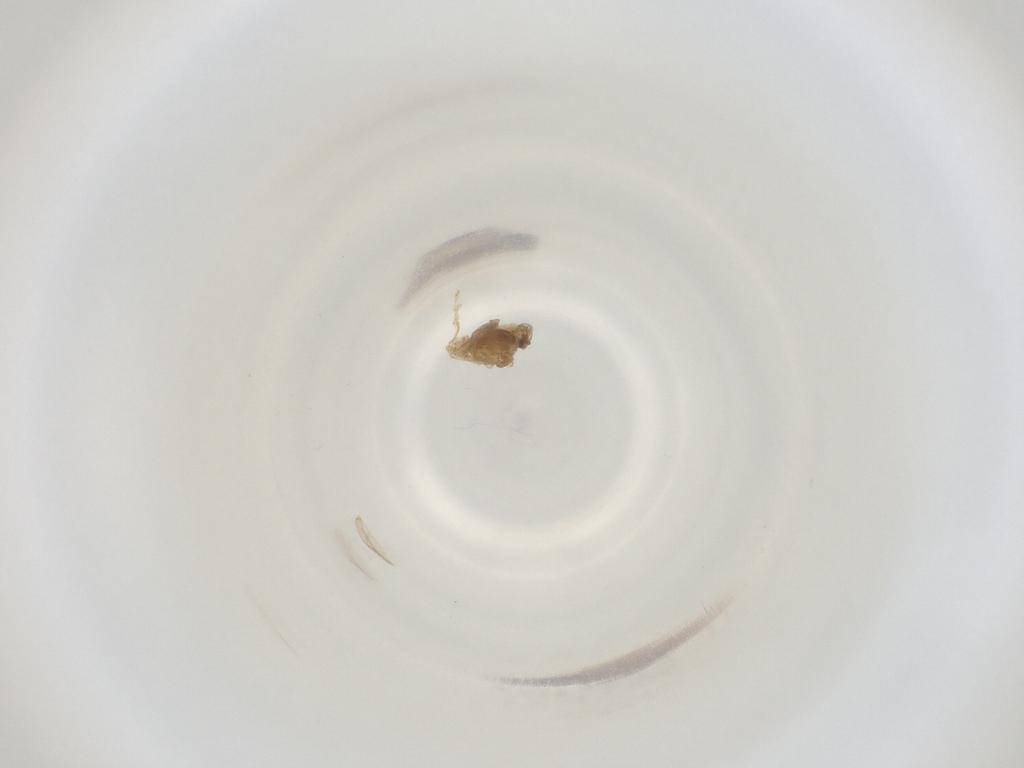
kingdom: Animalia
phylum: Arthropoda
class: Insecta
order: Diptera
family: Cecidomyiidae
